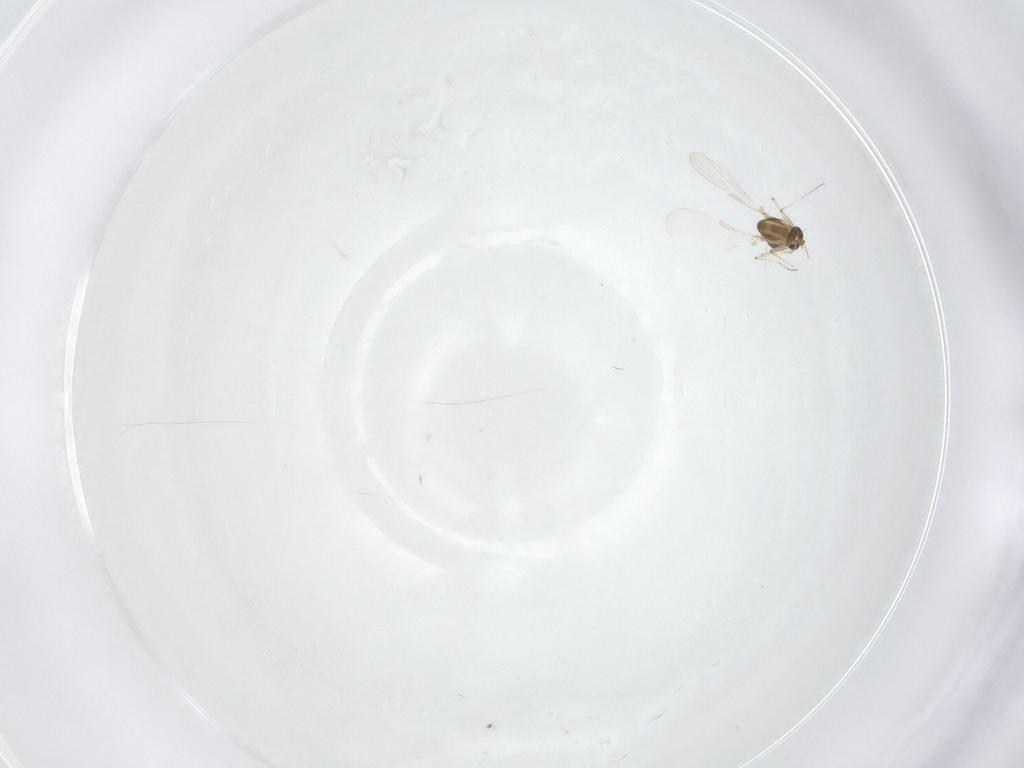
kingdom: Animalia
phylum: Arthropoda
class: Insecta
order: Diptera
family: Chironomidae
